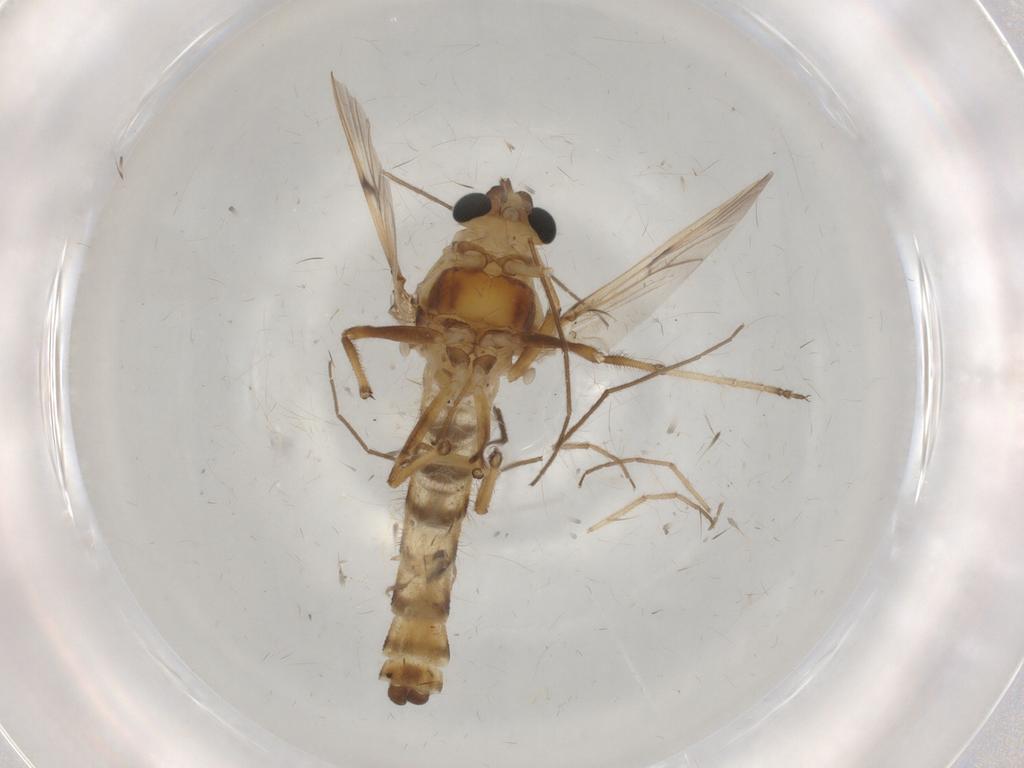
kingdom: Animalia
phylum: Arthropoda
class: Insecta
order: Diptera
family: Chironomidae
